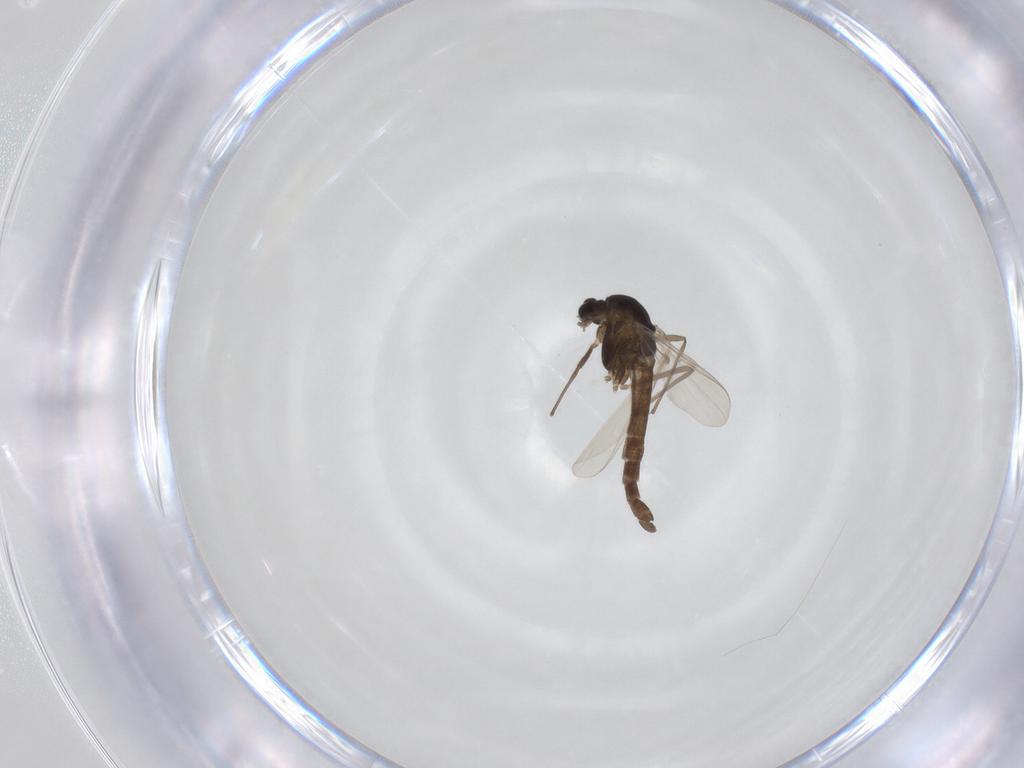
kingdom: Animalia
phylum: Arthropoda
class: Insecta
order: Diptera
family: Chironomidae
